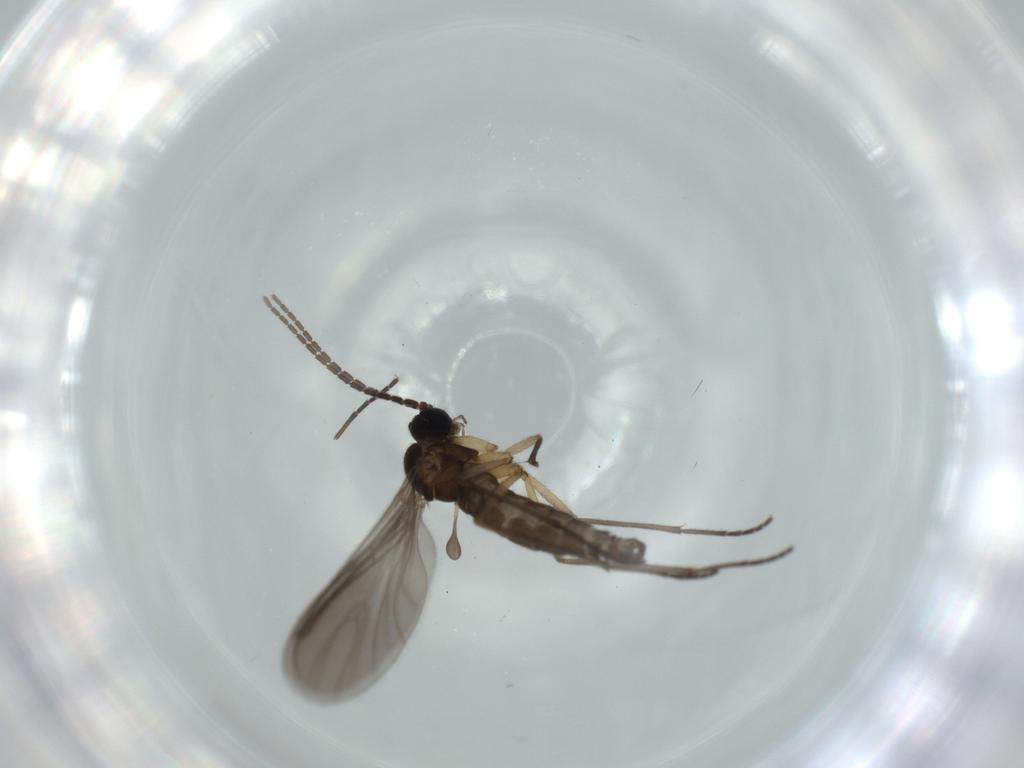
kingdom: Animalia
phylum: Arthropoda
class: Insecta
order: Diptera
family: Sciaridae
